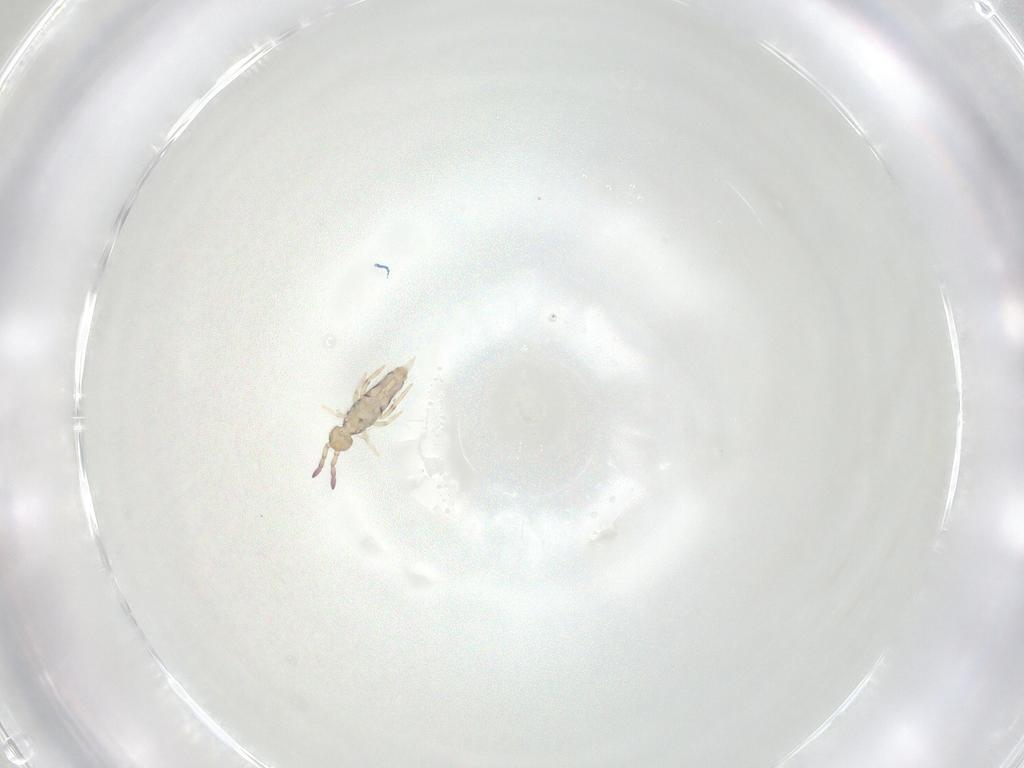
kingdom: Animalia
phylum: Arthropoda
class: Collembola
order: Entomobryomorpha
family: Entomobryidae
